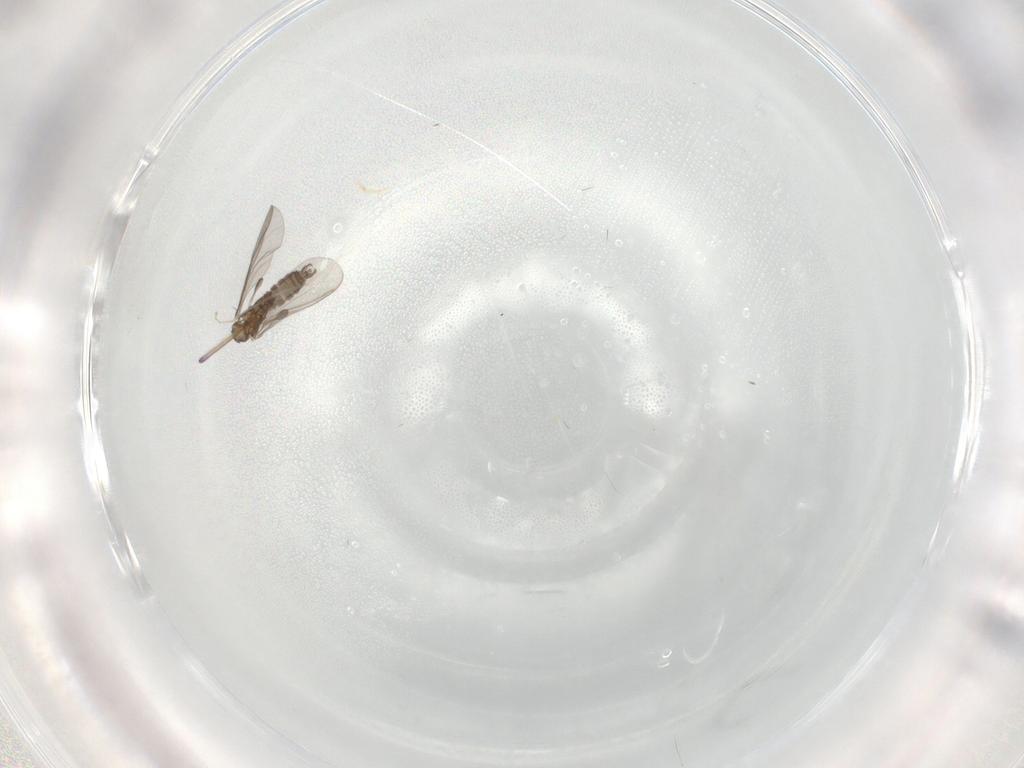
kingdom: Animalia
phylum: Arthropoda
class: Insecta
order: Diptera
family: Sciaridae
